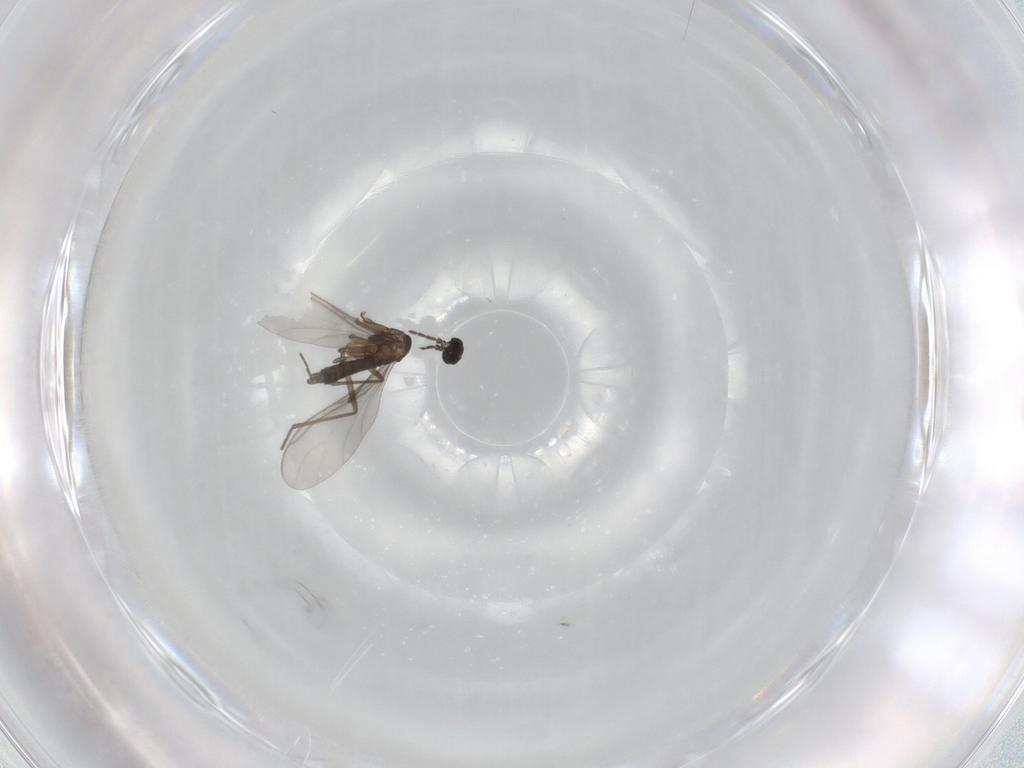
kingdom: Animalia
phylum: Arthropoda
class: Insecta
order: Diptera
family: Sciaridae
